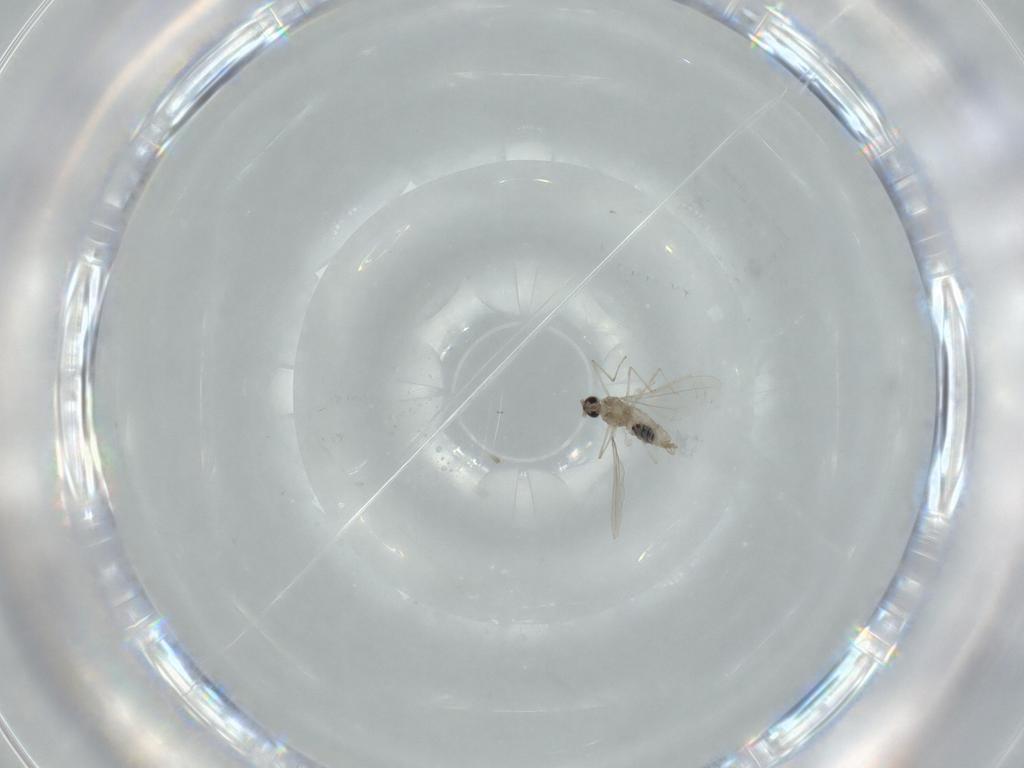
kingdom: Animalia
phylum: Arthropoda
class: Insecta
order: Diptera
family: Cecidomyiidae
